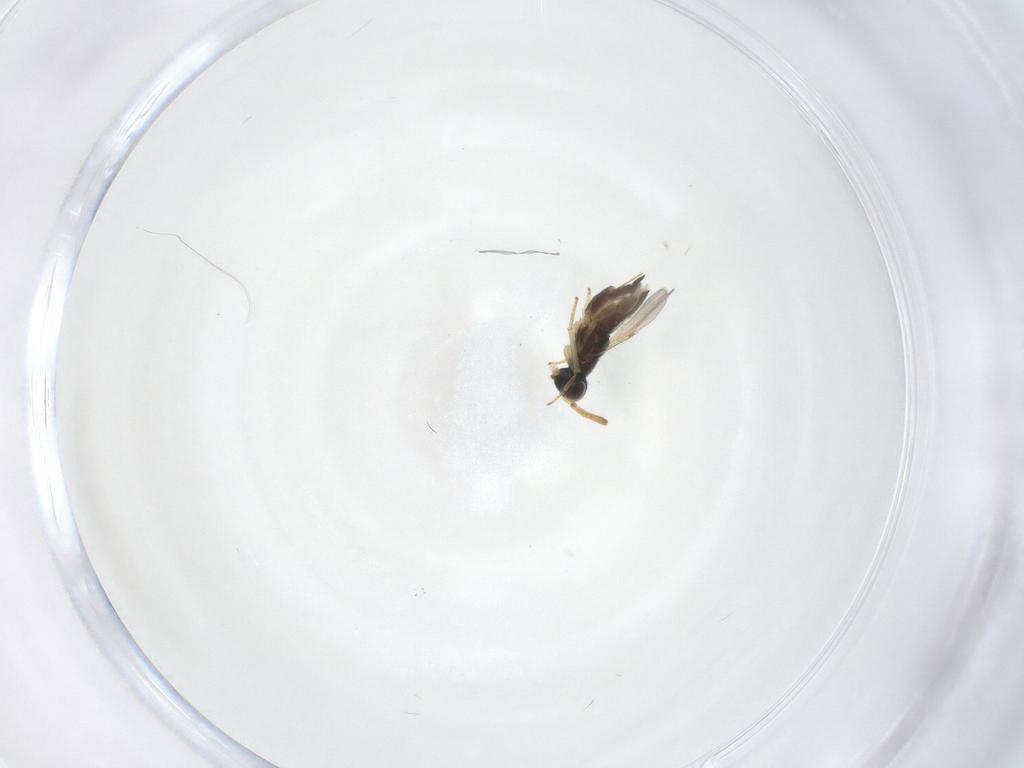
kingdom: Animalia
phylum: Arthropoda
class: Insecta
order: Hymenoptera
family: Encyrtidae
